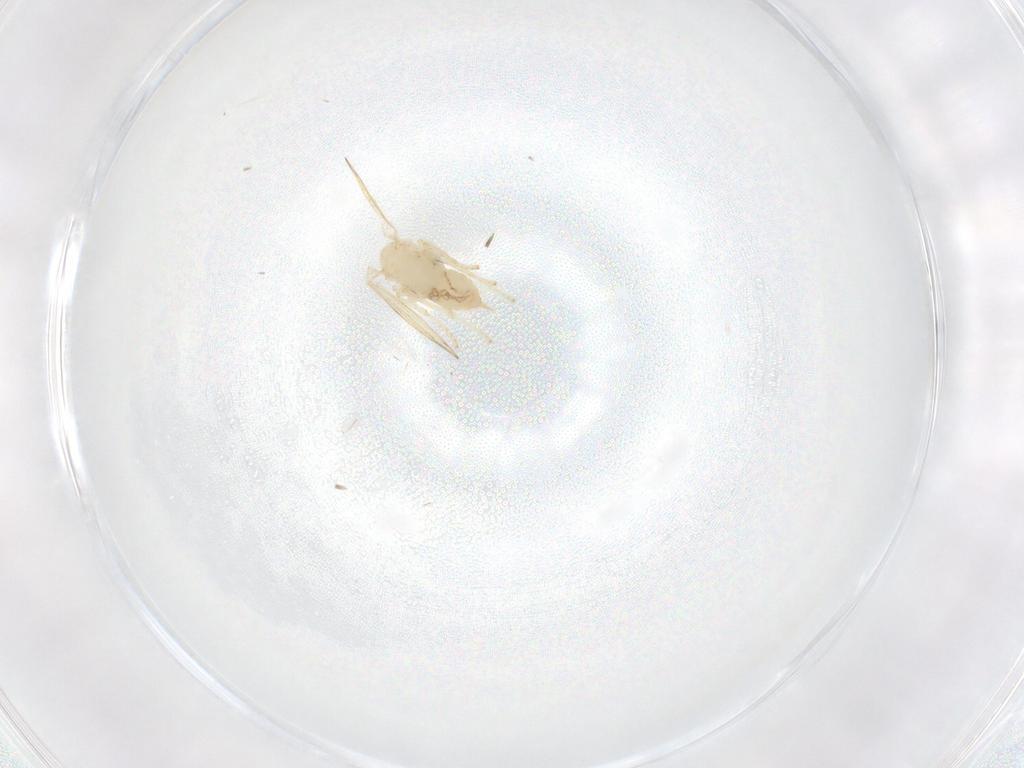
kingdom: Animalia
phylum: Arthropoda
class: Insecta
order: Diptera
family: Psychodidae
